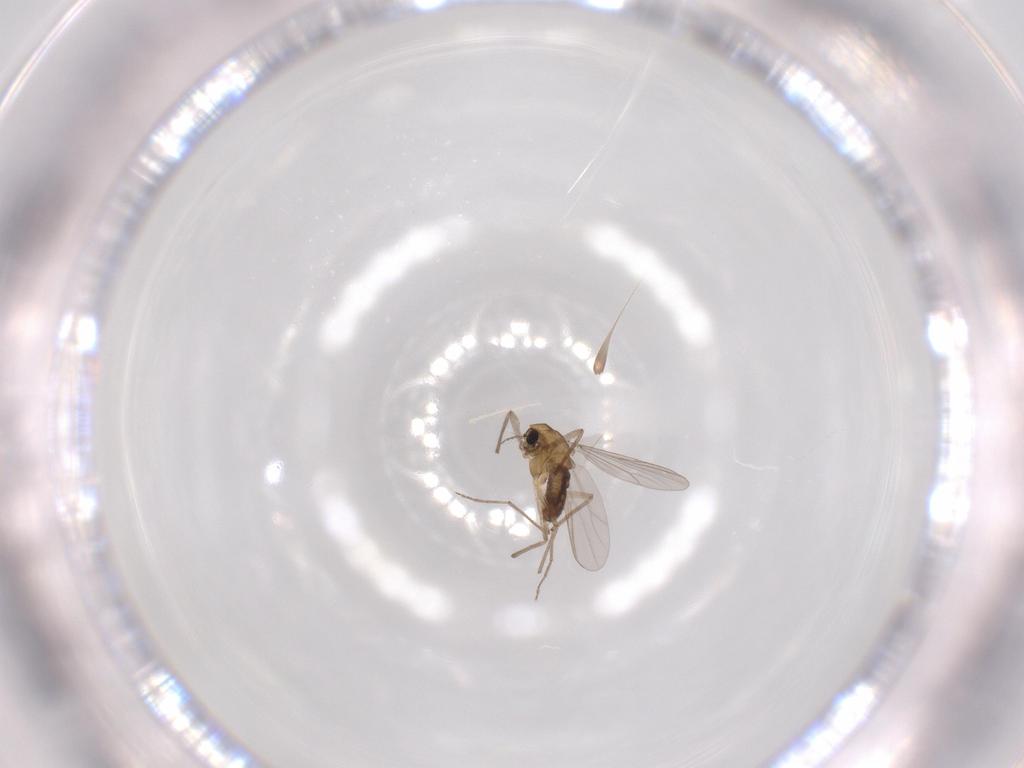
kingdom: Animalia
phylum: Arthropoda
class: Insecta
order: Diptera
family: Chironomidae
